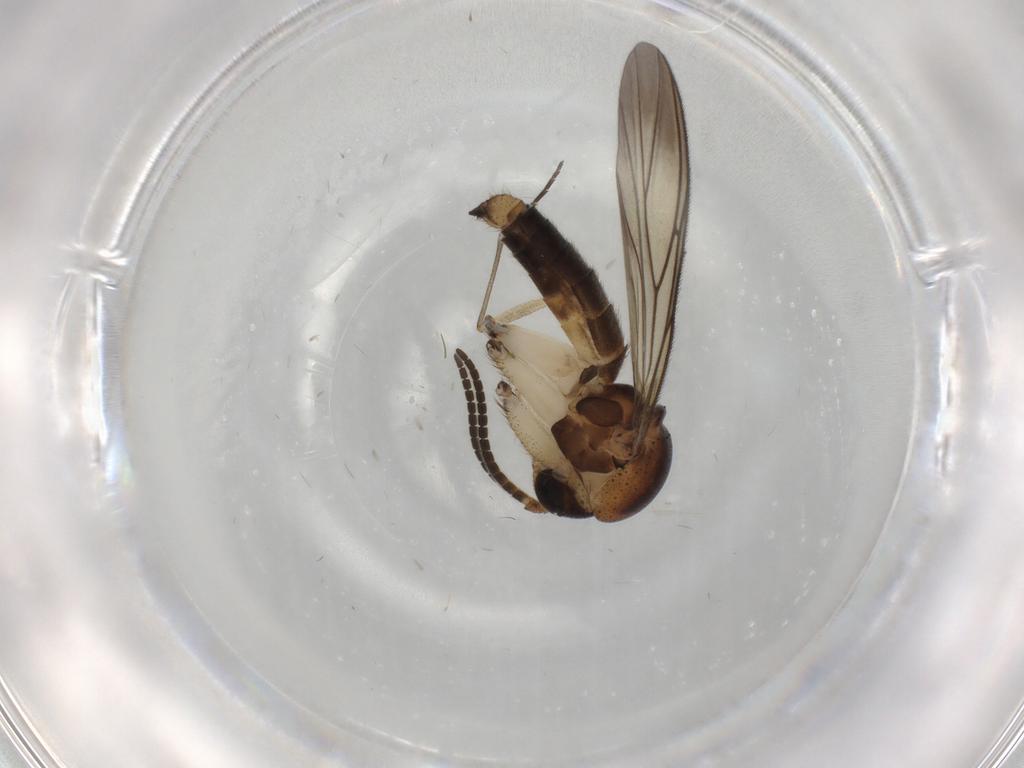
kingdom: Animalia
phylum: Arthropoda
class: Insecta
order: Diptera
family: Mycetophilidae
